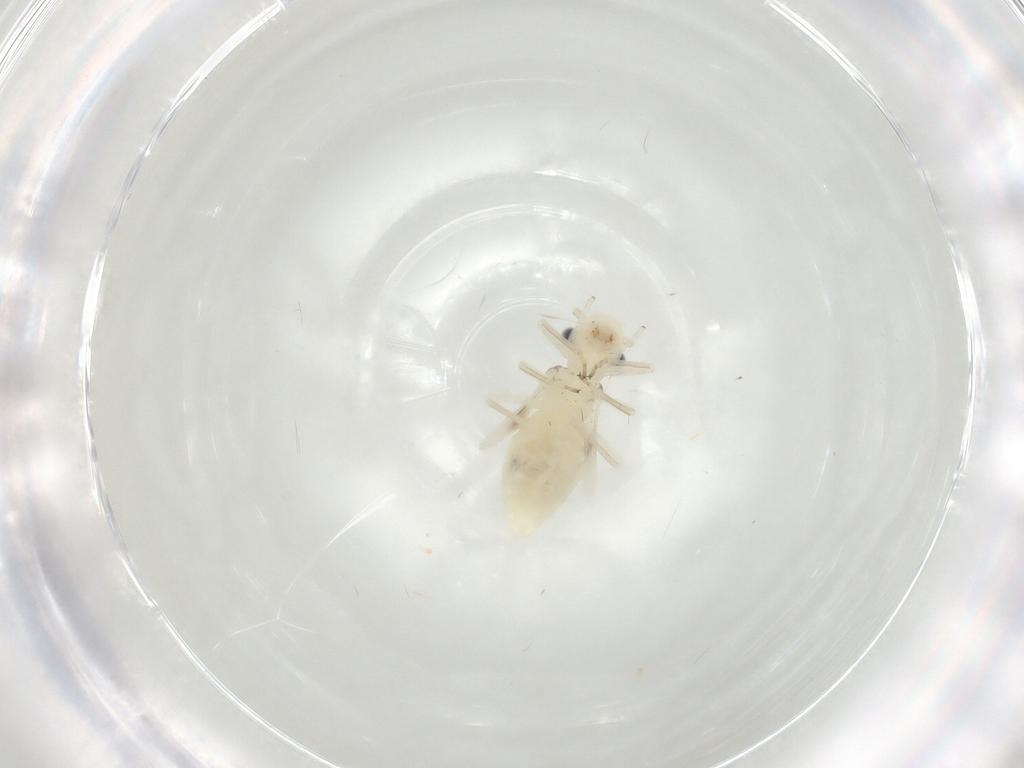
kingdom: Animalia
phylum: Arthropoda
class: Insecta
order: Psocodea
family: Stenopsocidae
